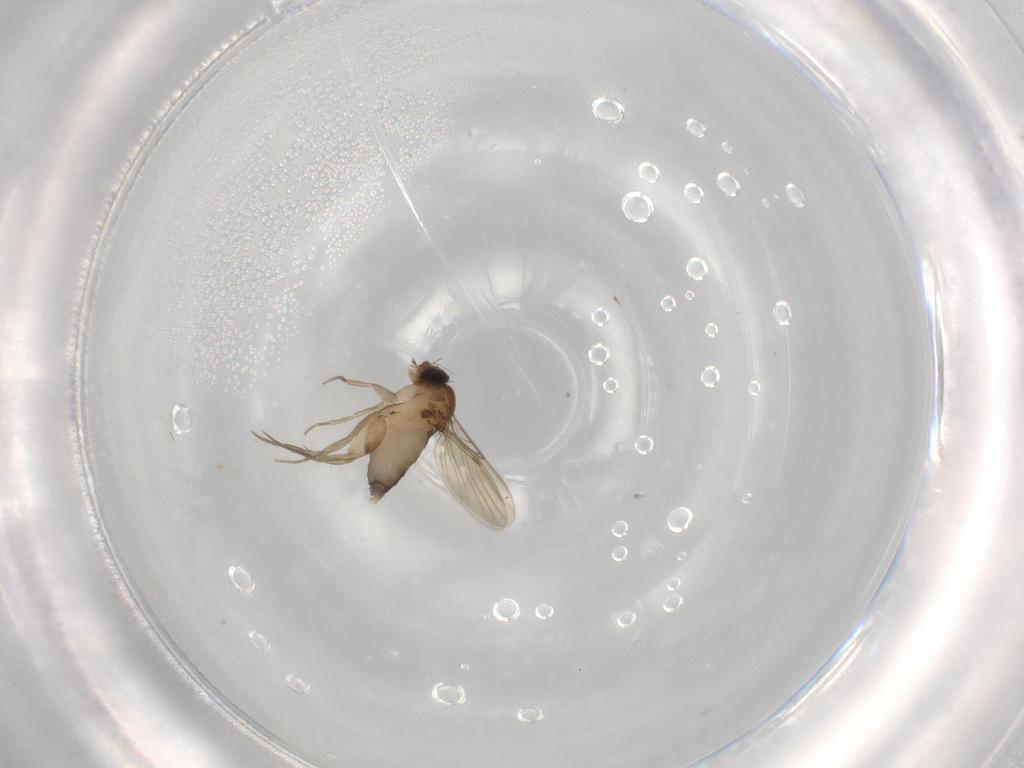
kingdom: Animalia
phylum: Arthropoda
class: Insecta
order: Diptera
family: Phoridae
